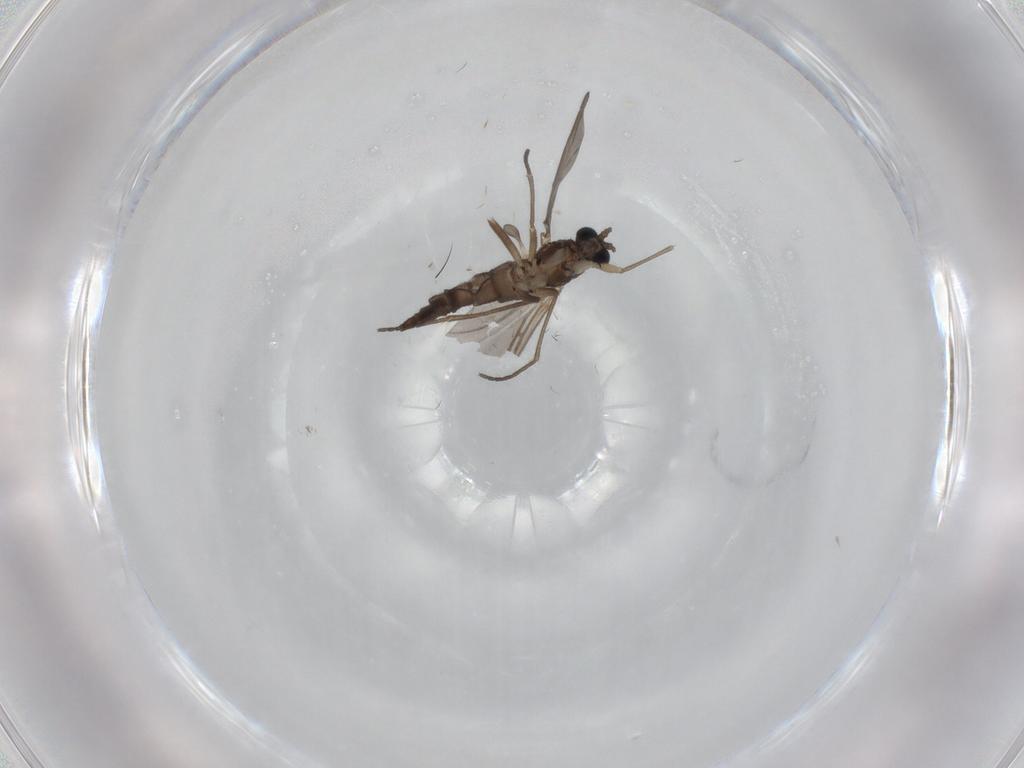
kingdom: Animalia
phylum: Arthropoda
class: Insecta
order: Diptera
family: Sciaridae
